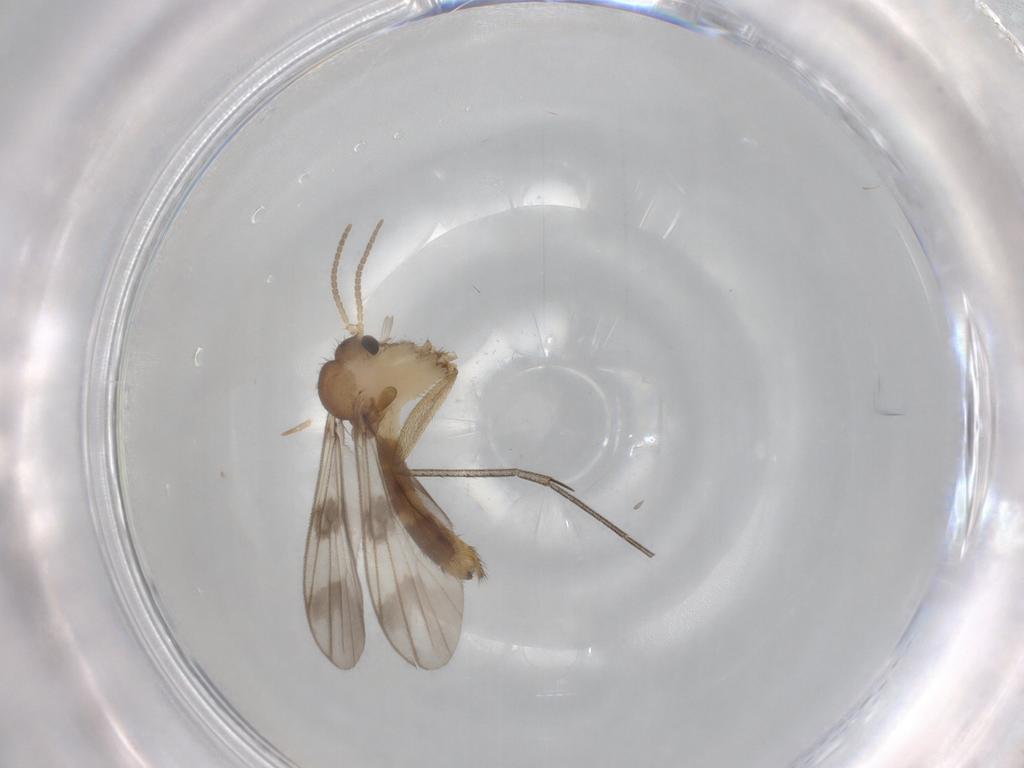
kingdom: Animalia
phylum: Arthropoda
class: Insecta
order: Diptera
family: Mycetophilidae
